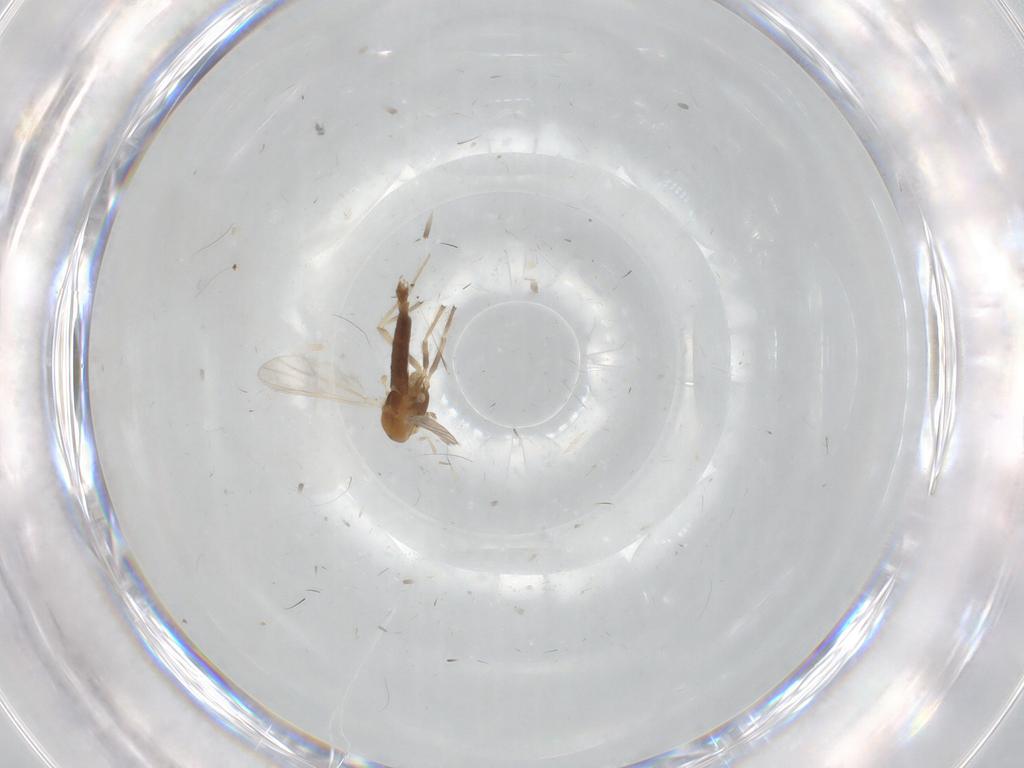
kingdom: Animalia
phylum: Arthropoda
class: Insecta
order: Diptera
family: Chironomidae
